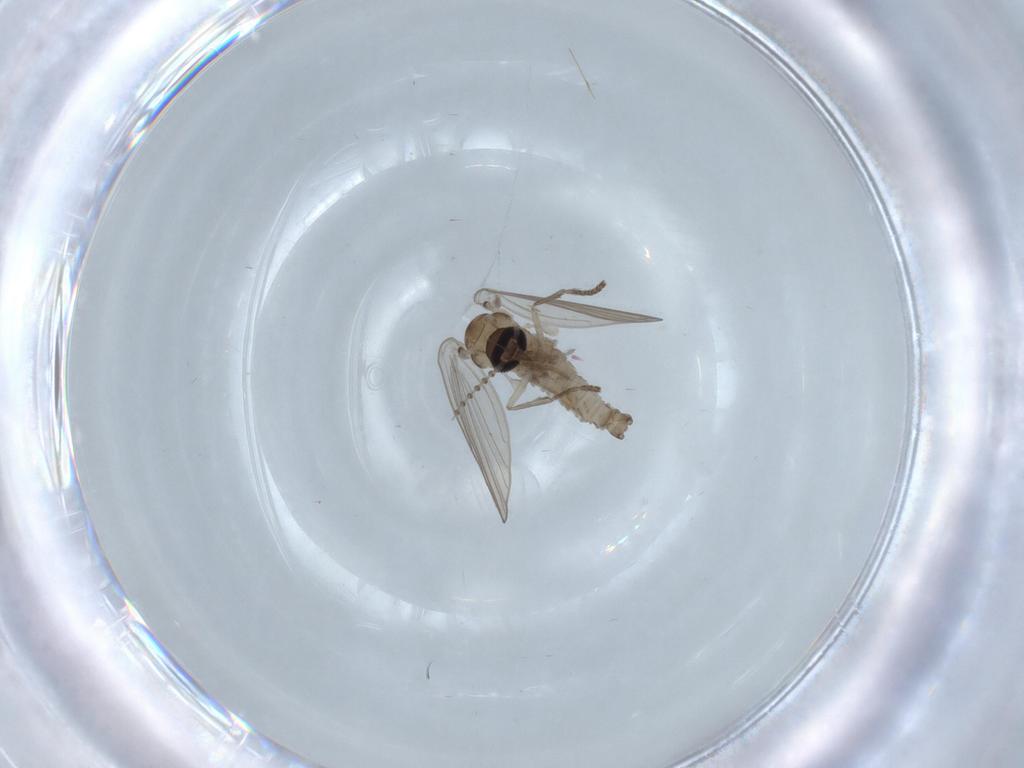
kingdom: Animalia
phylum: Arthropoda
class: Insecta
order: Diptera
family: Psychodidae
